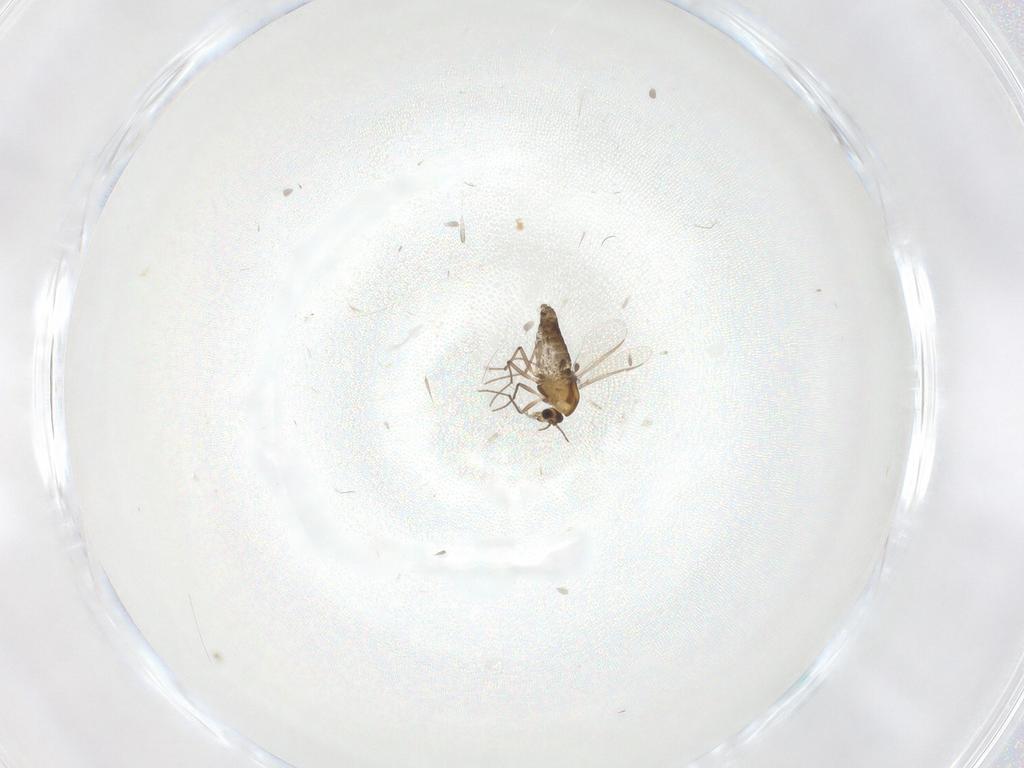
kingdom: Animalia
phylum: Arthropoda
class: Insecta
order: Diptera
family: Chironomidae
